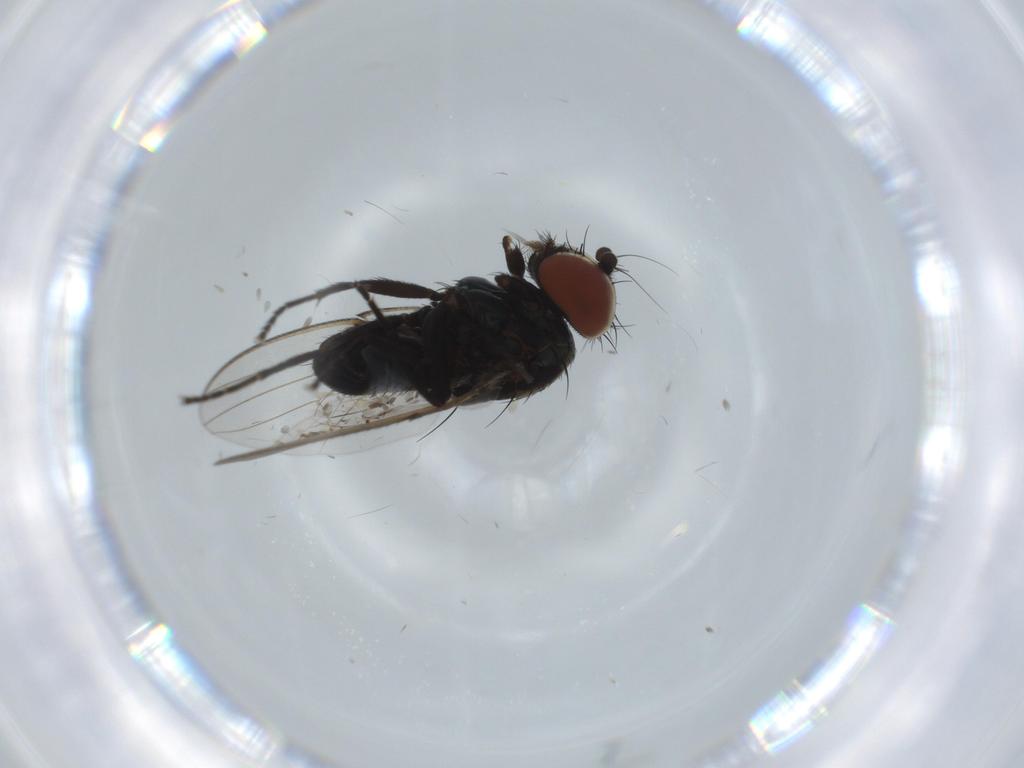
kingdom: Animalia
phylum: Arthropoda
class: Insecta
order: Diptera
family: Milichiidae
